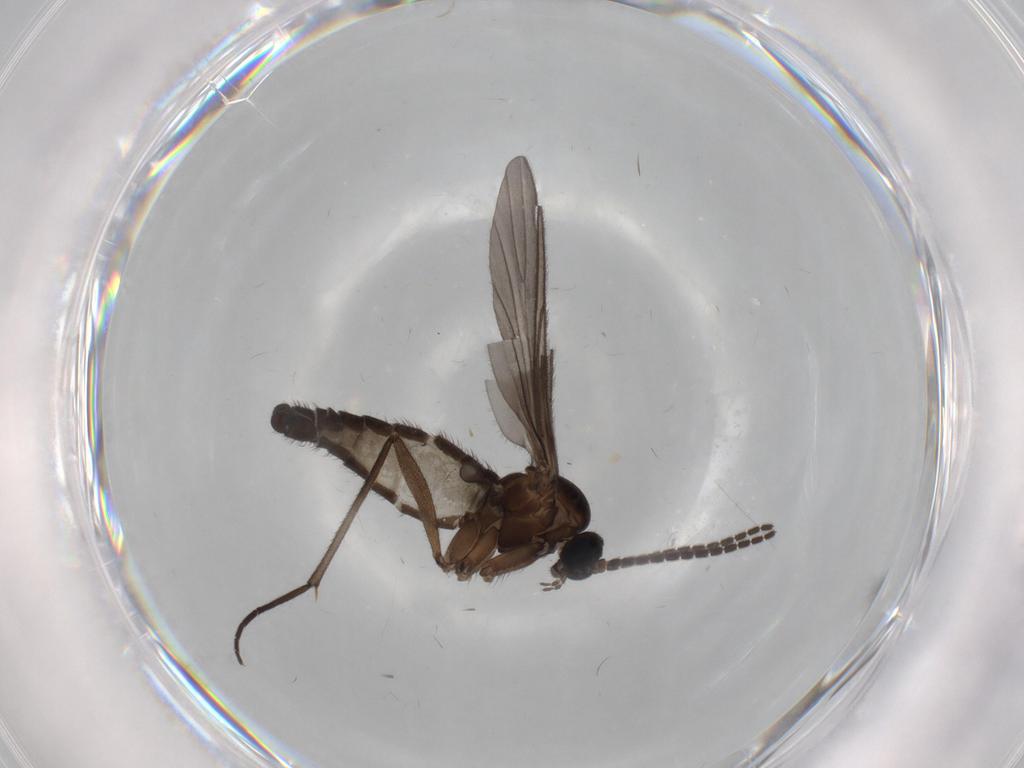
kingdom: Animalia
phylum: Arthropoda
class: Insecta
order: Diptera
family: Sciaridae
